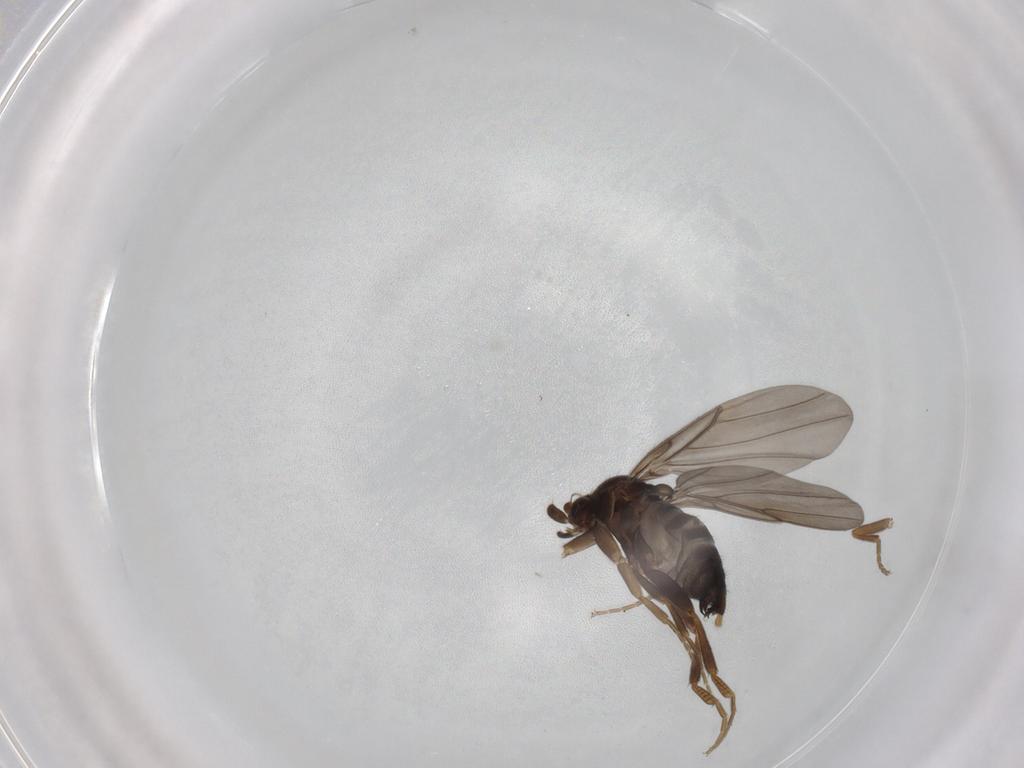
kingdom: Animalia
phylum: Arthropoda
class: Insecta
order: Diptera
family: Phoridae
